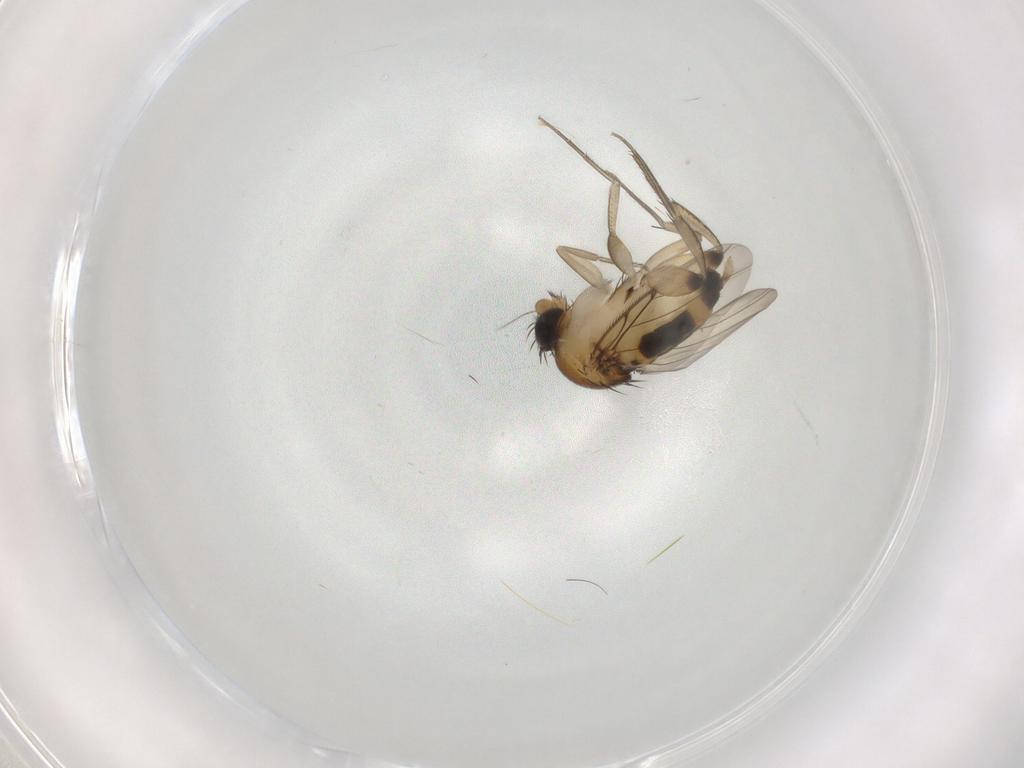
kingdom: Animalia
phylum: Arthropoda
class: Insecta
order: Diptera
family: Phoridae
